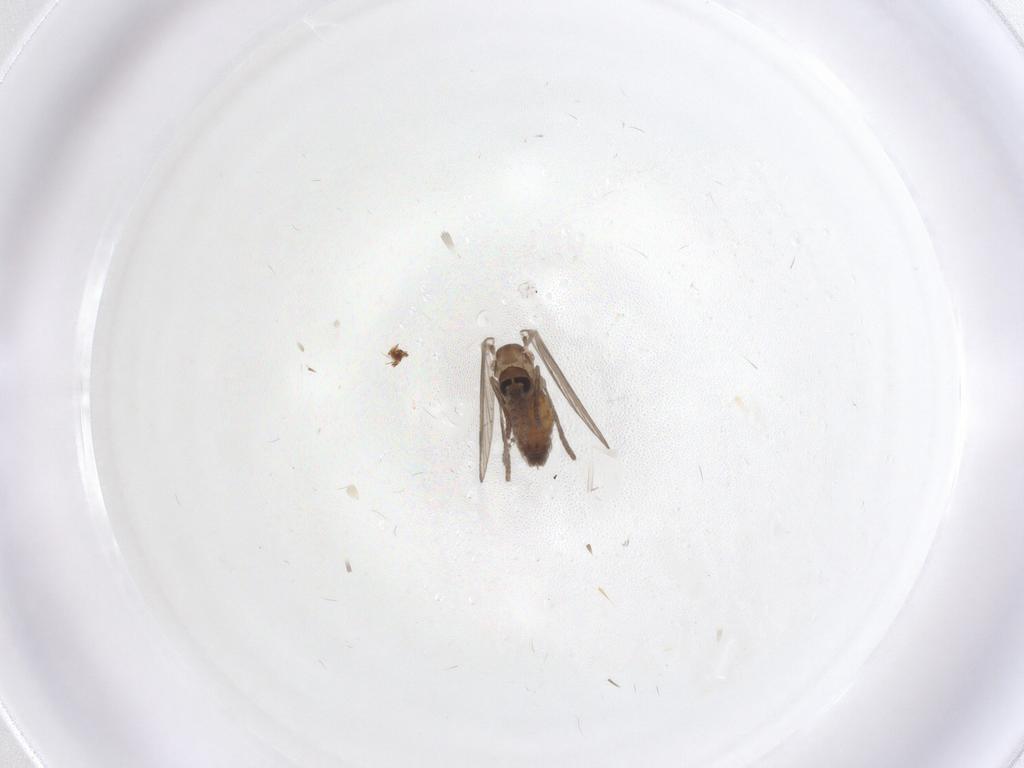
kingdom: Animalia
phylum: Arthropoda
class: Insecta
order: Diptera
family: Psychodidae
